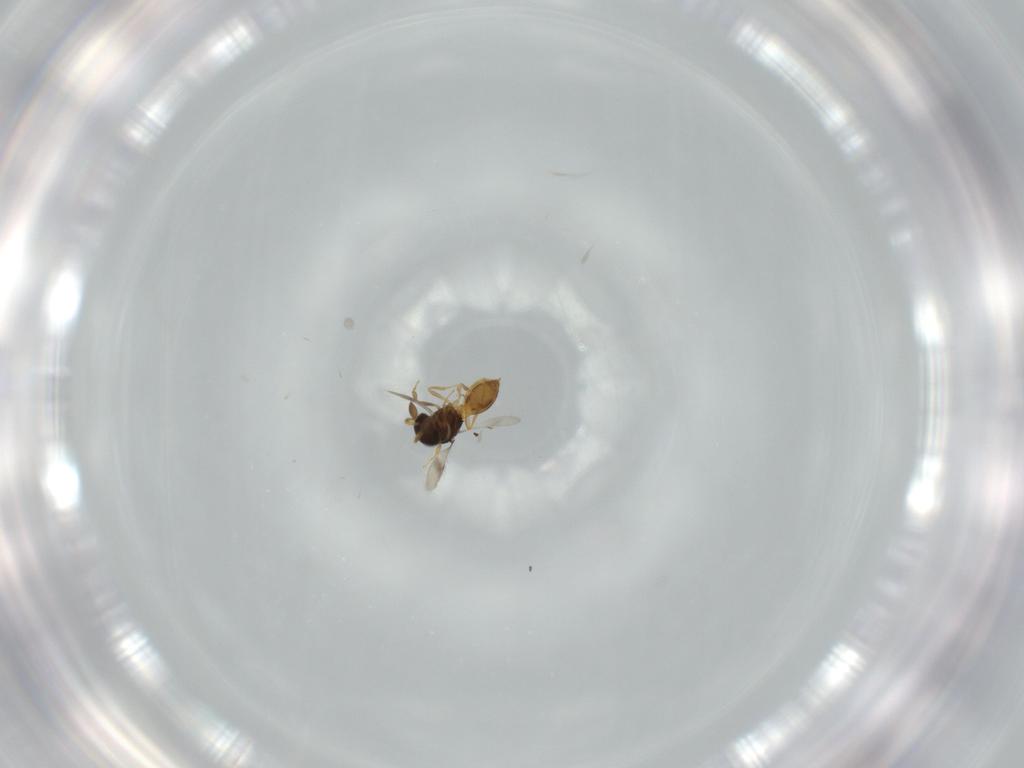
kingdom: Animalia
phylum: Arthropoda
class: Insecta
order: Hymenoptera
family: Scelionidae
